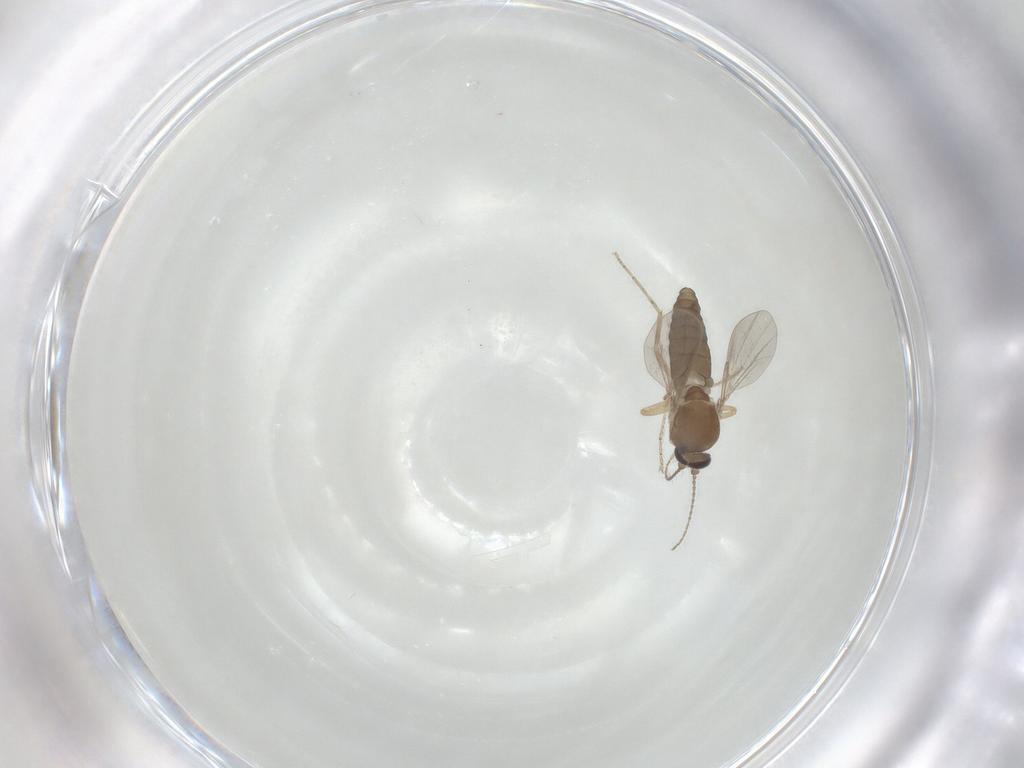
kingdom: Animalia
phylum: Arthropoda
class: Insecta
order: Diptera
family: Ceratopogonidae
